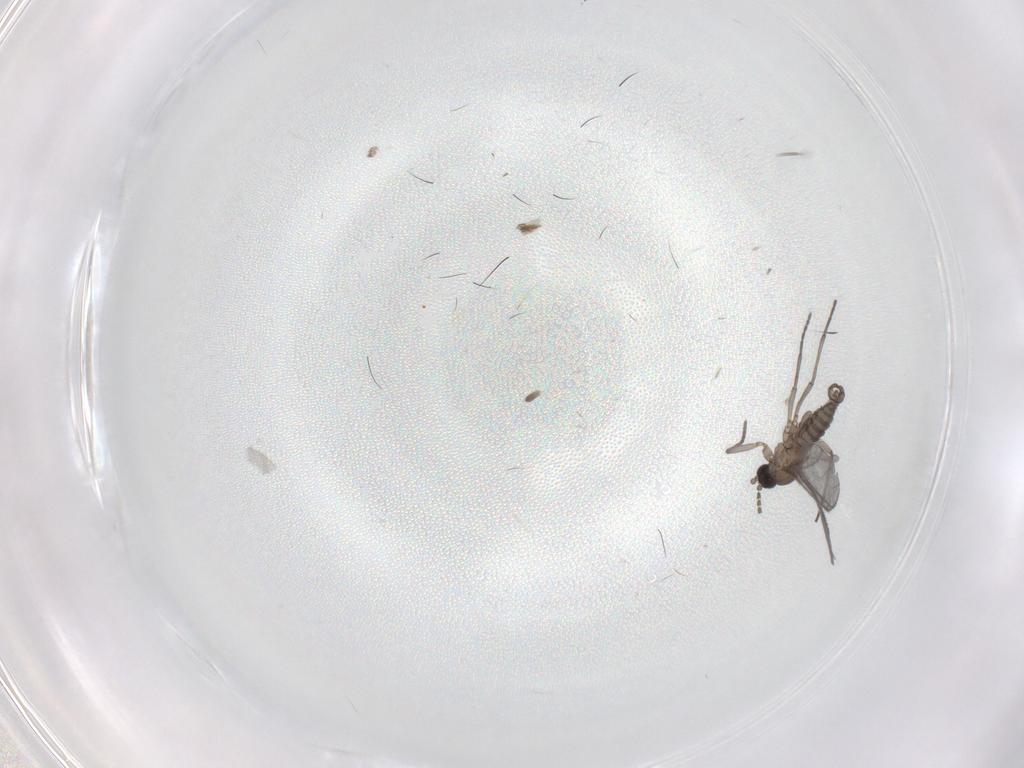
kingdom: Animalia
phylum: Arthropoda
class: Insecta
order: Diptera
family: Sciaridae
